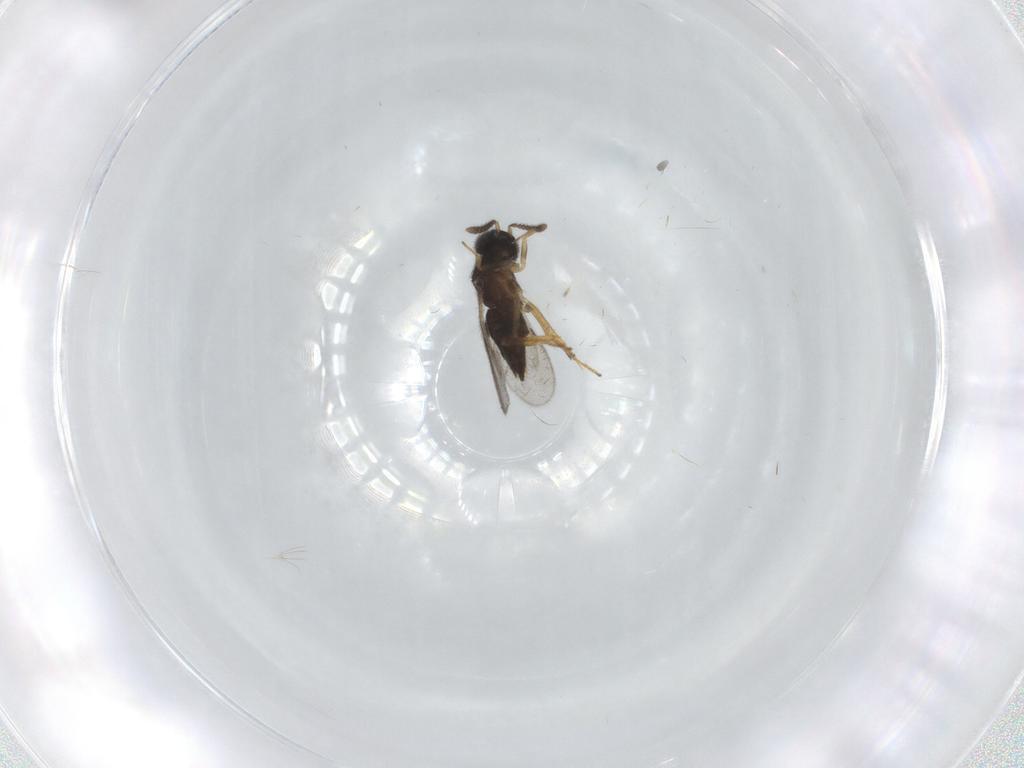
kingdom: Animalia
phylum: Arthropoda
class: Insecta
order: Hymenoptera
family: Encyrtidae
